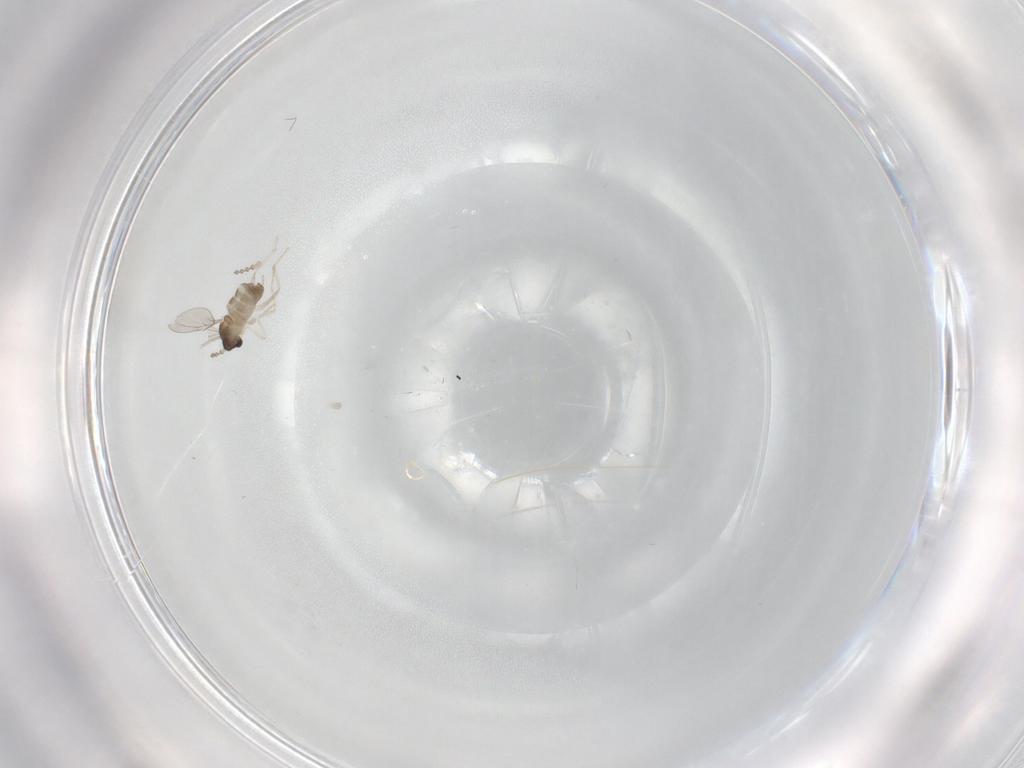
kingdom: Animalia
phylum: Arthropoda
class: Insecta
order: Diptera
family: Cecidomyiidae
